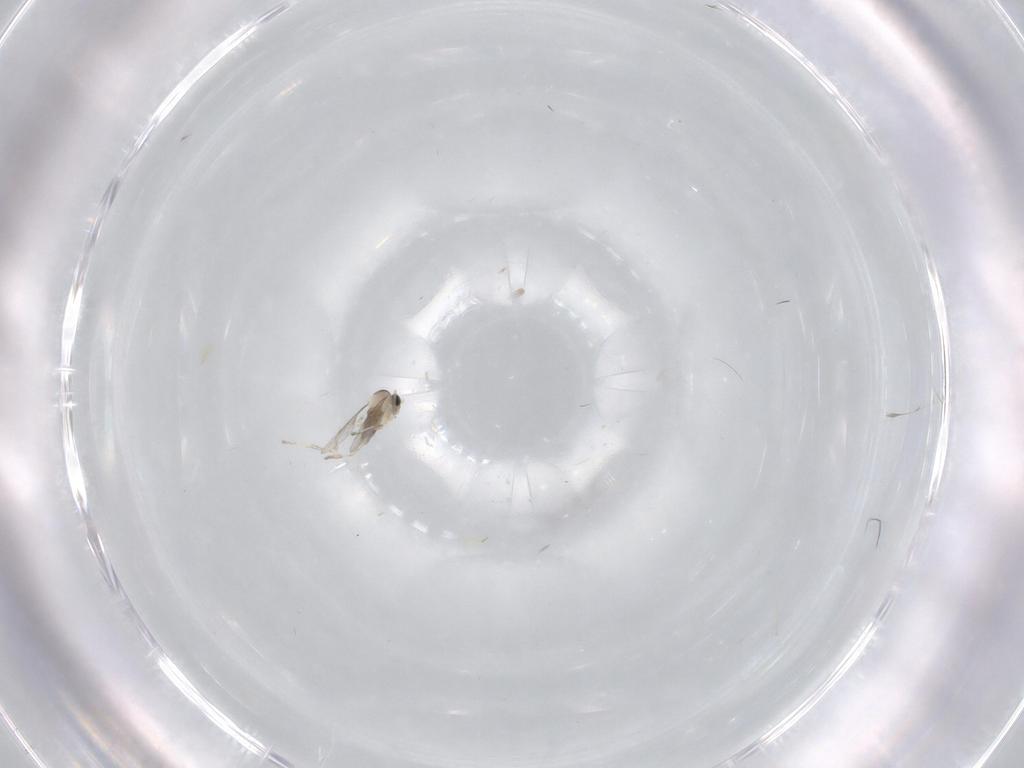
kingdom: Animalia
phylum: Arthropoda
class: Insecta
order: Diptera
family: Cecidomyiidae
